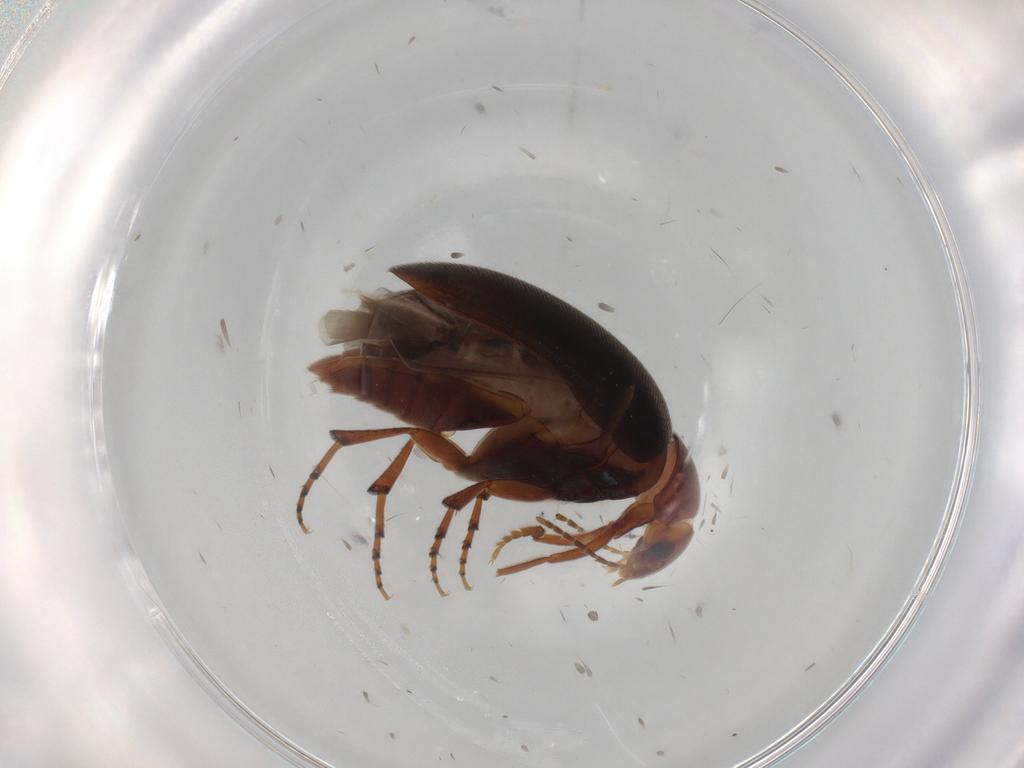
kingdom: Animalia
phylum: Arthropoda
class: Insecta
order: Coleoptera
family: Eucinetidae
